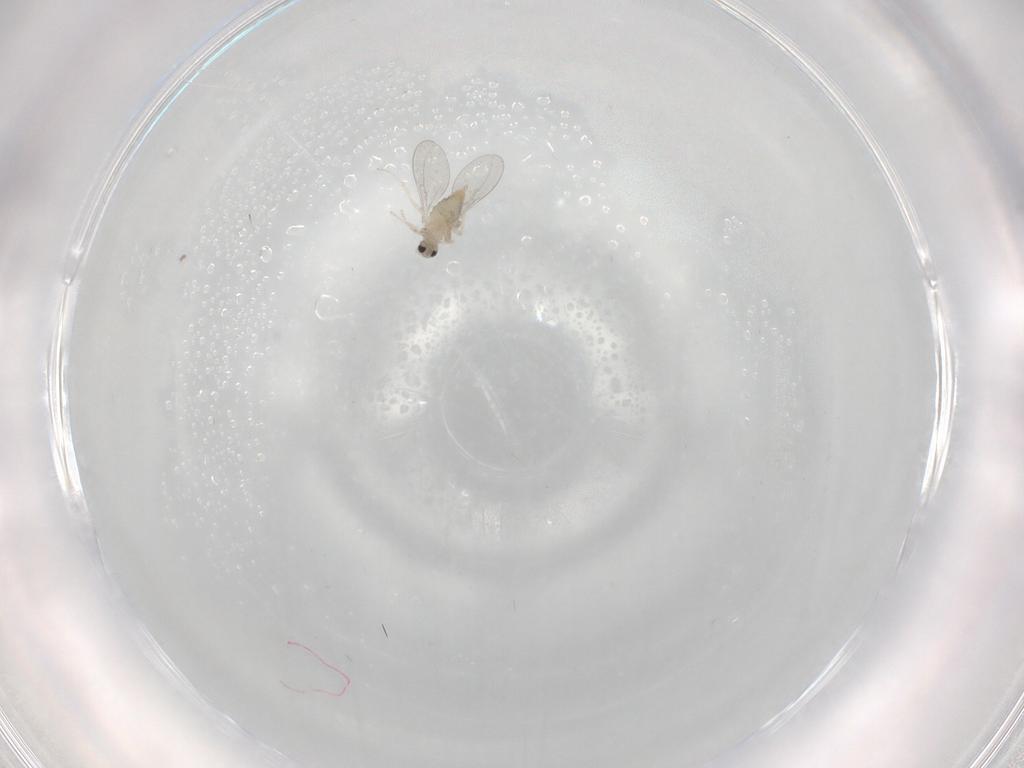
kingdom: Animalia
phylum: Arthropoda
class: Insecta
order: Diptera
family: Cecidomyiidae
